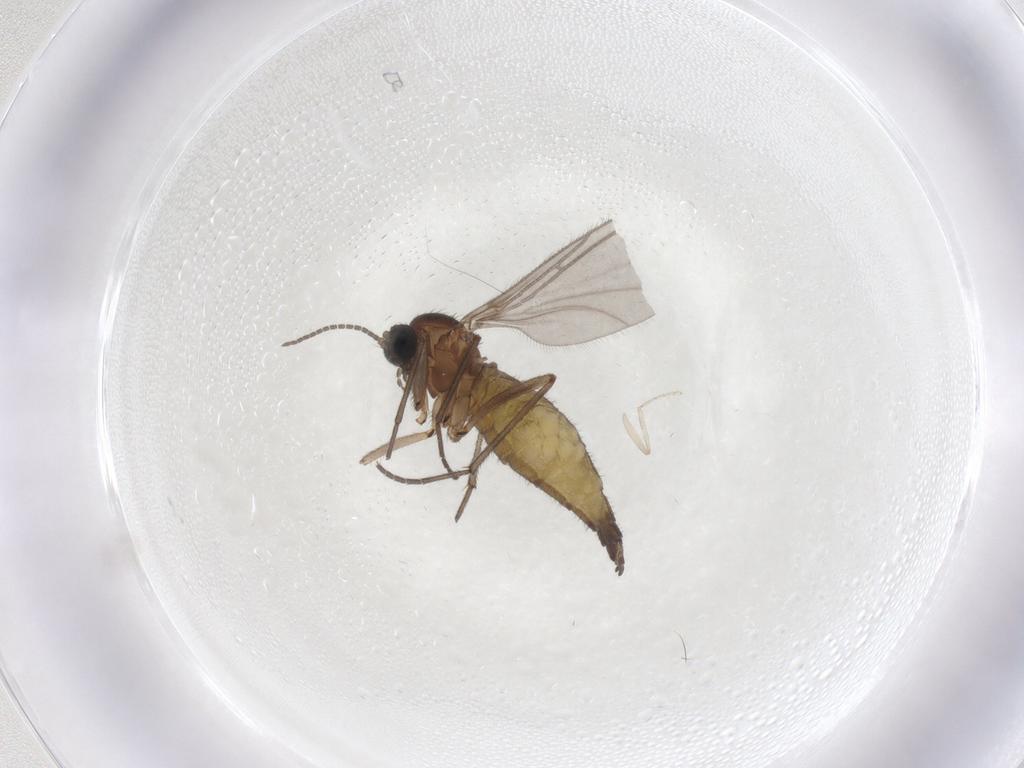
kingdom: Animalia
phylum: Arthropoda
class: Insecta
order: Diptera
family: Sciaridae
